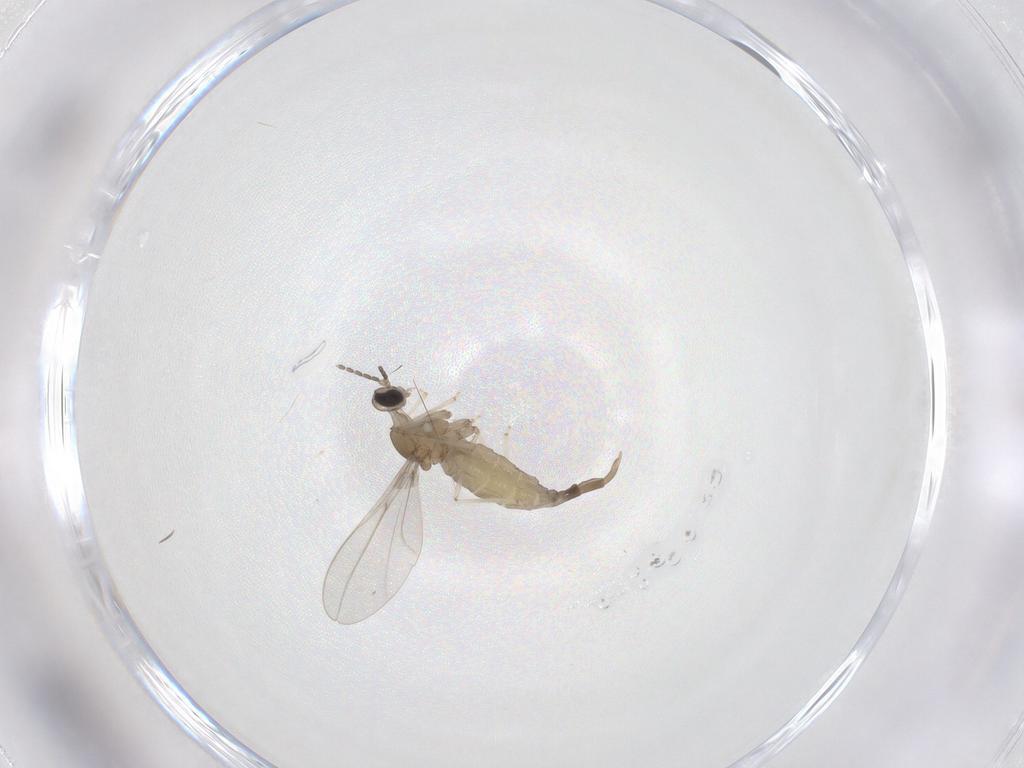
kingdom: Animalia
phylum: Arthropoda
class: Insecta
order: Diptera
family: Cecidomyiidae
